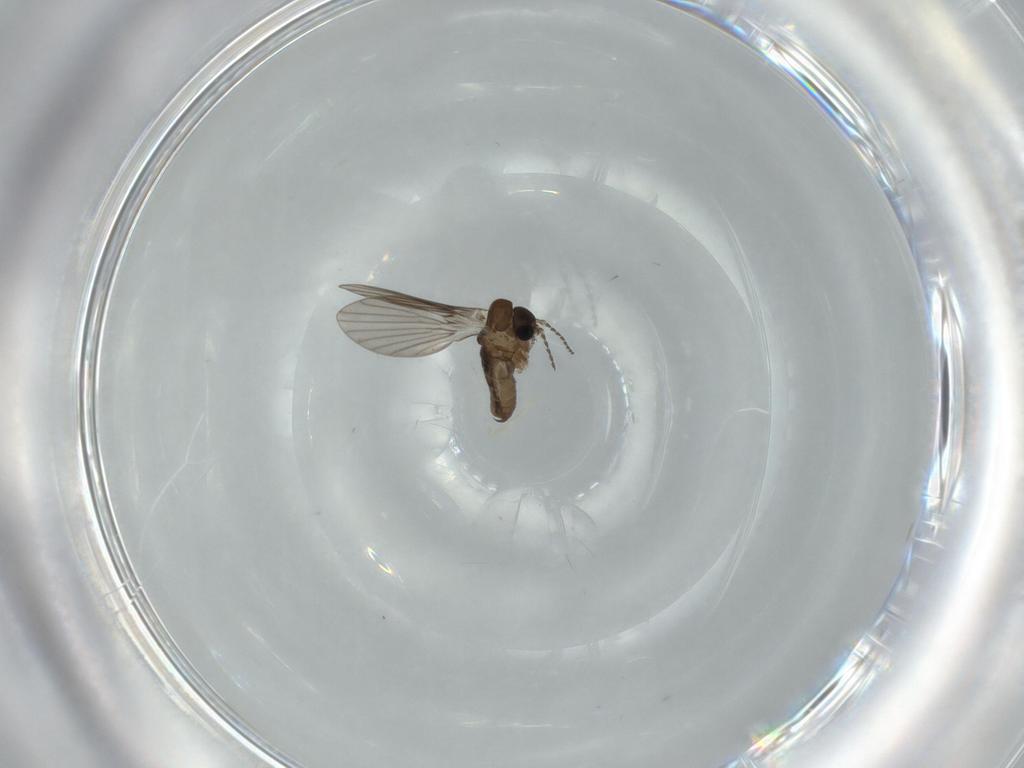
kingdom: Animalia
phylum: Arthropoda
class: Insecta
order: Diptera
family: Psychodidae
